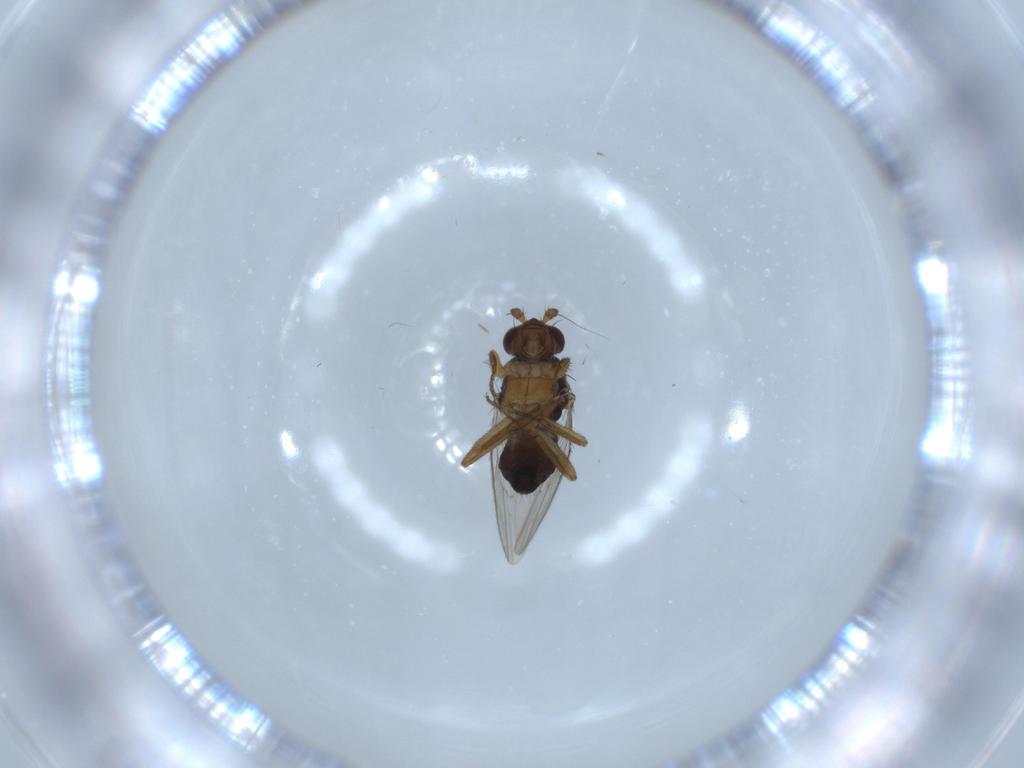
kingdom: Animalia
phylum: Arthropoda
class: Insecta
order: Diptera
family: Sphaeroceridae
